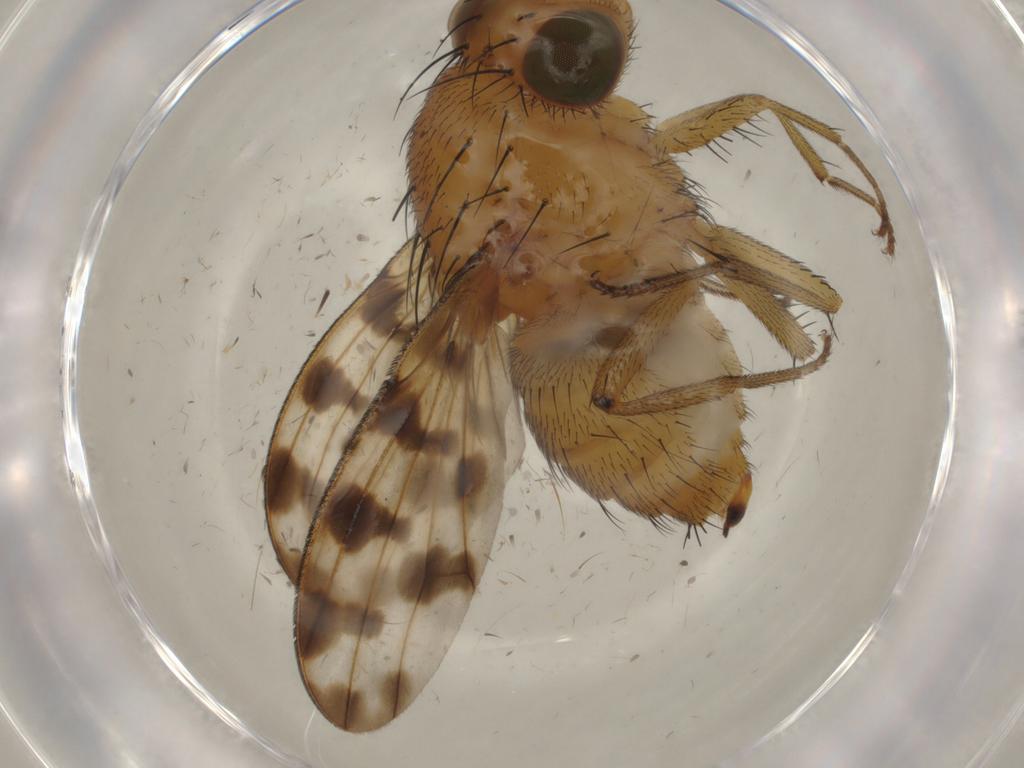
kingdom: Animalia
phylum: Arthropoda
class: Insecta
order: Diptera
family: Chironomidae
